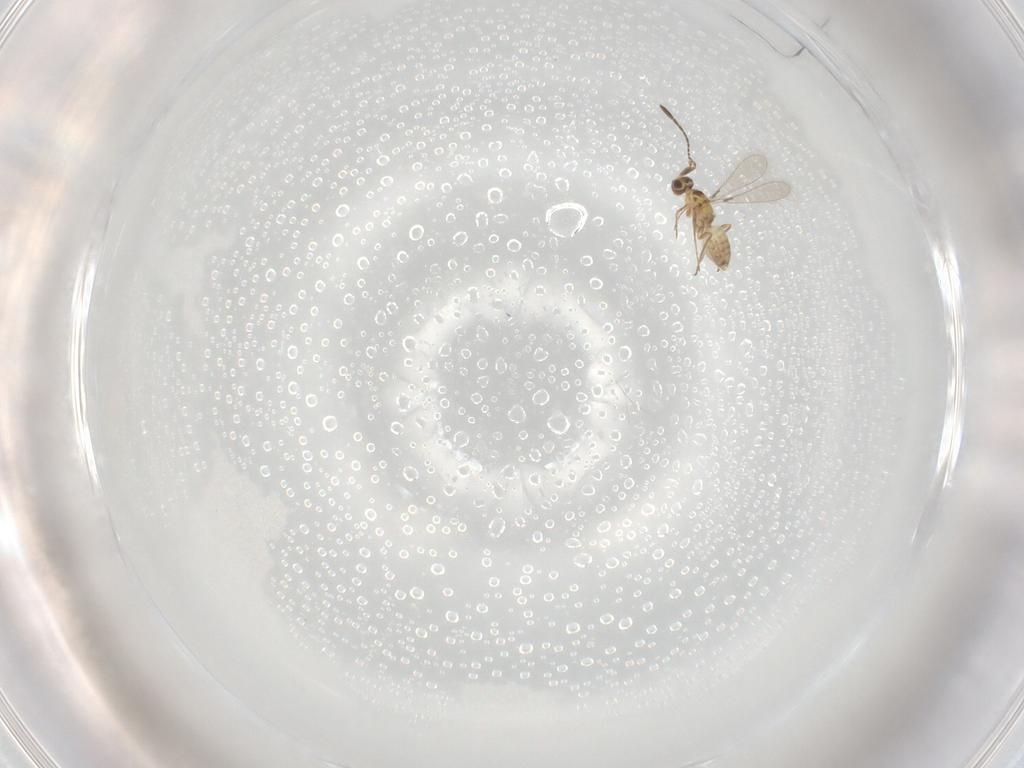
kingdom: Animalia
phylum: Arthropoda
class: Insecta
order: Hymenoptera
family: Mymaridae
